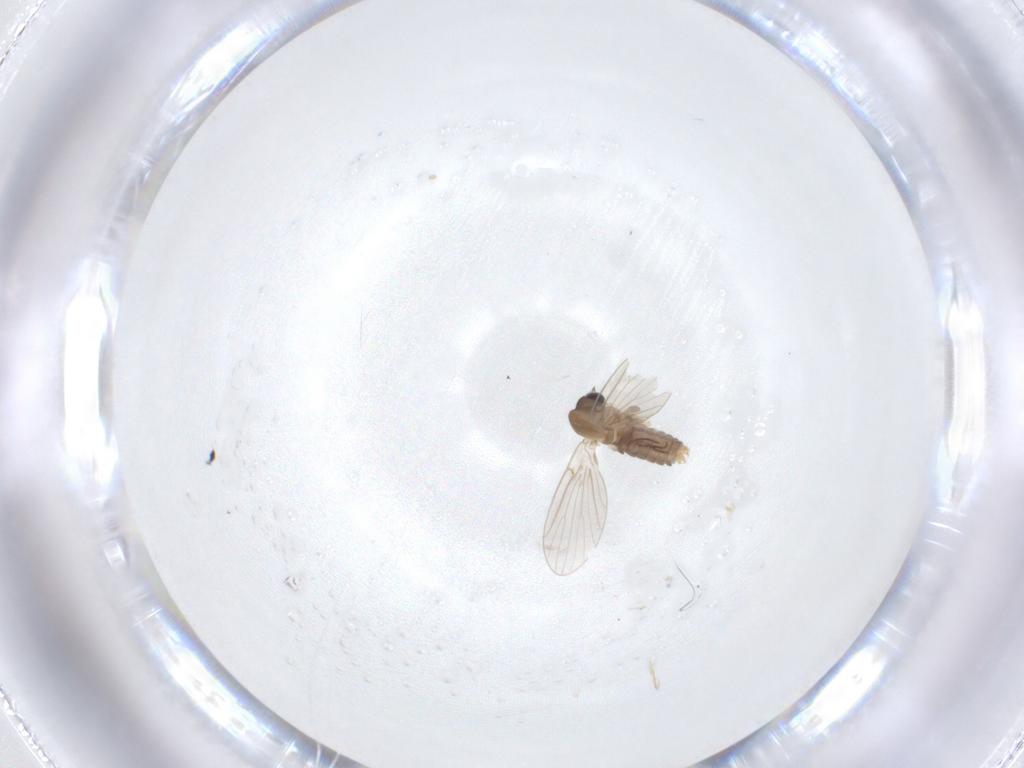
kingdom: Animalia
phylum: Arthropoda
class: Insecta
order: Diptera
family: Psychodidae
